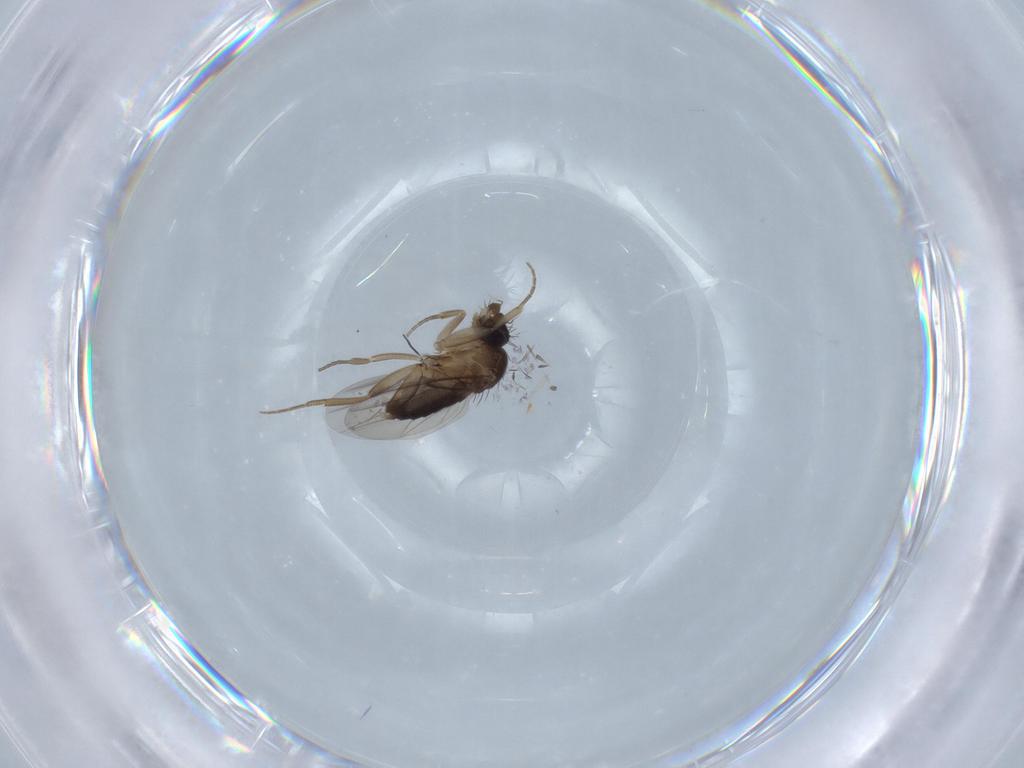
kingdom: Animalia
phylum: Arthropoda
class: Insecta
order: Diptera
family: Phoridae
